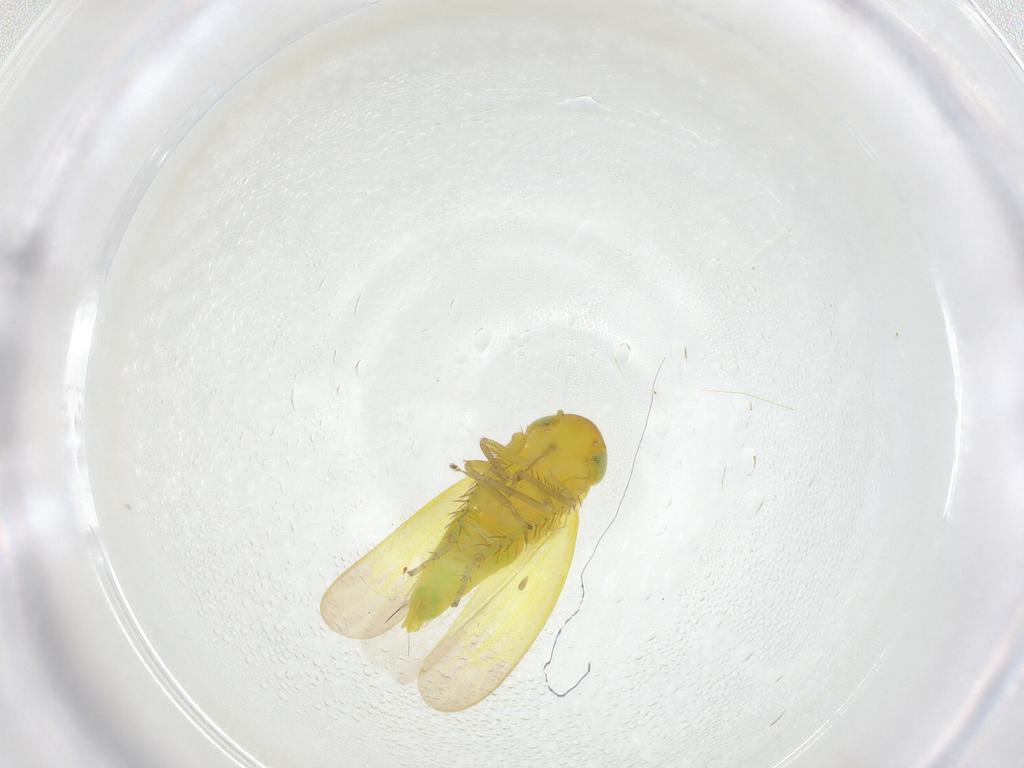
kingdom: Animalia
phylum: Arthropoda
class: Insecta
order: Hemiptera
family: Cicadellidae
